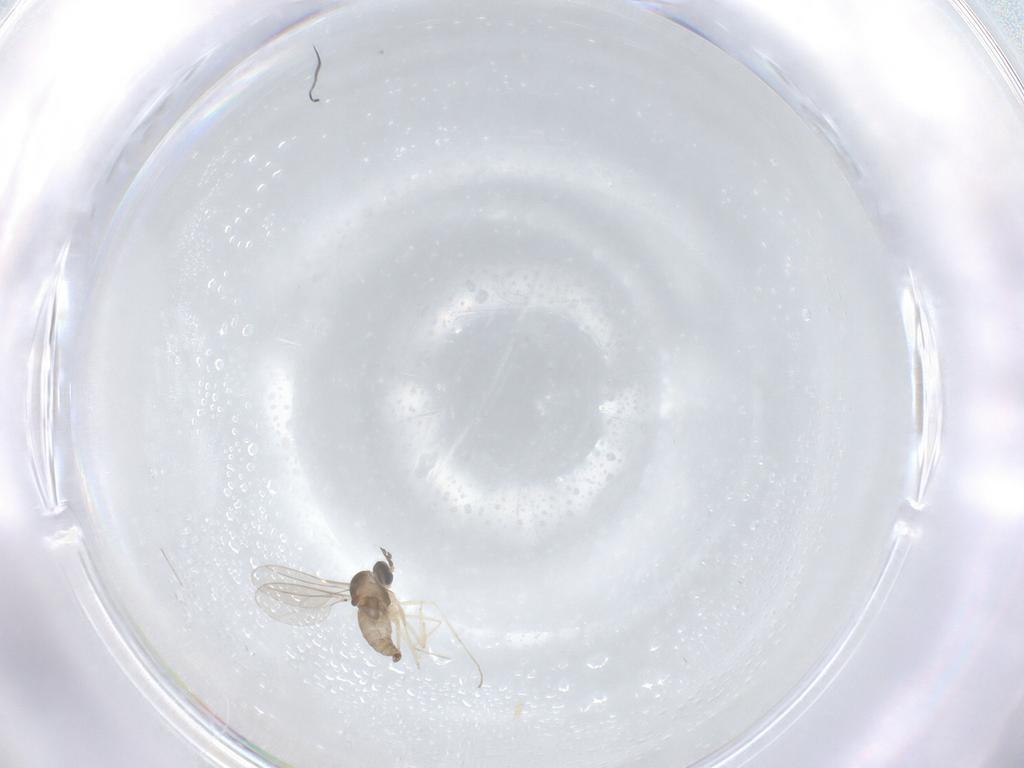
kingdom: Animalia
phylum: Arthropoda
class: Insecta
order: Diptera
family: Cecidomyiidae
